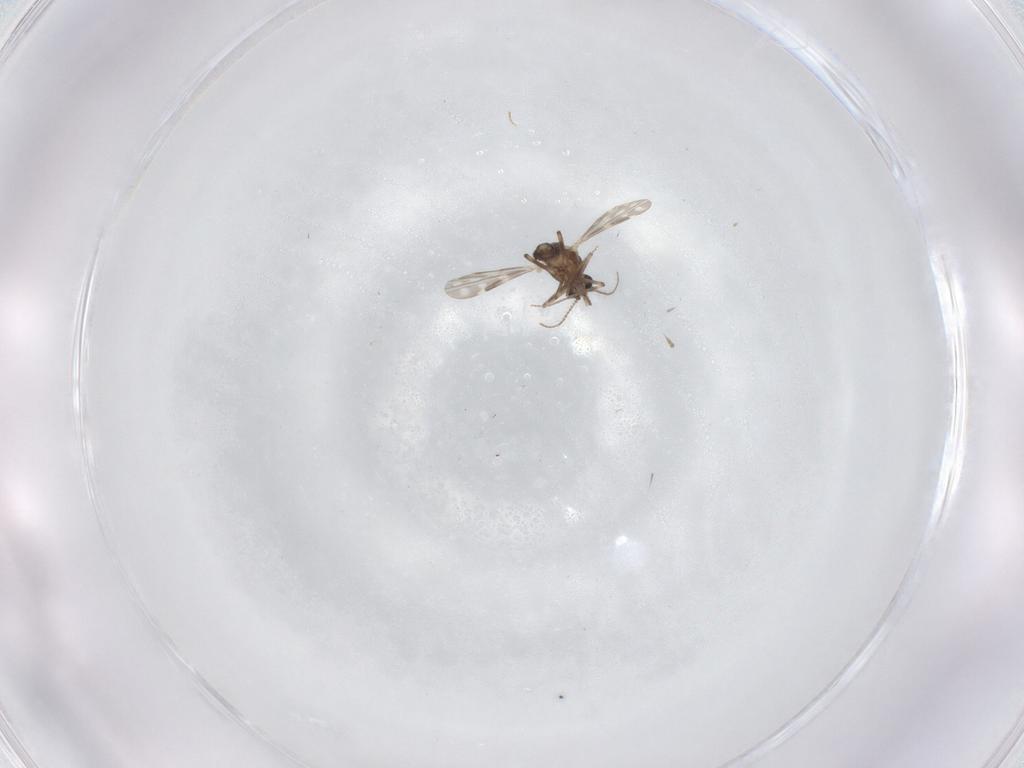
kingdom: Animalia
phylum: Arthropoda
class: Insecta
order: Diptera
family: Ceratopogonidae
